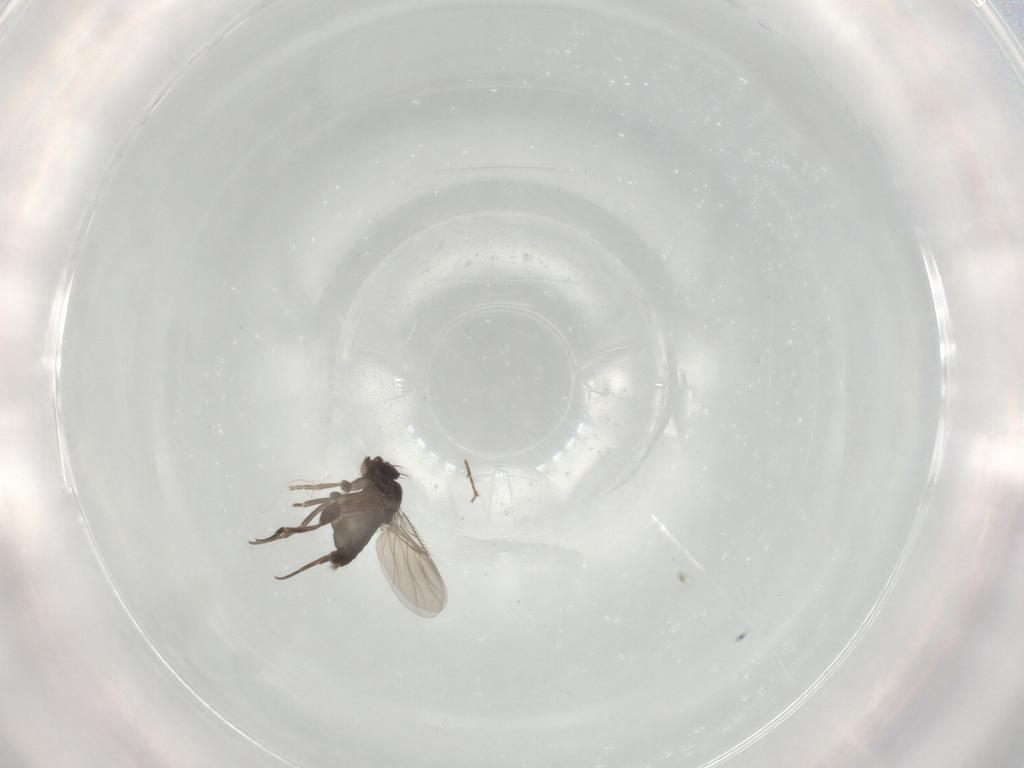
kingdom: Animalia
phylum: Arthropoda
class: Insecta
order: Diptera
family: Phoridae
